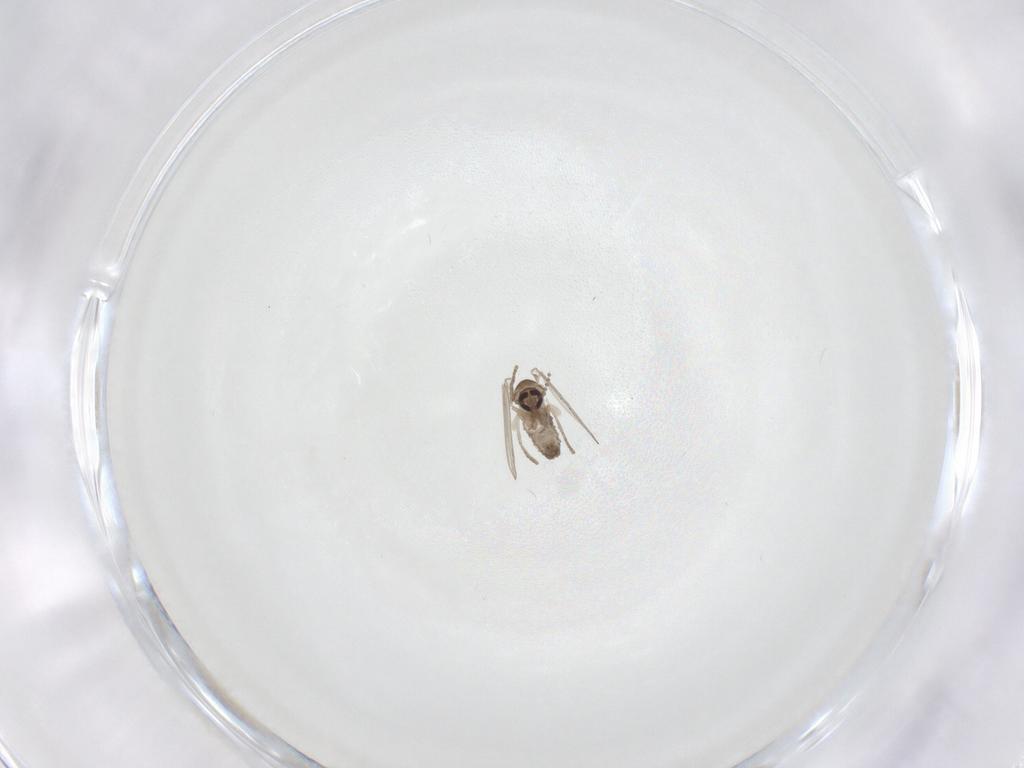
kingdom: Animalia
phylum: Arthropoda
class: Insecta
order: Diptera
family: Psychodidae
